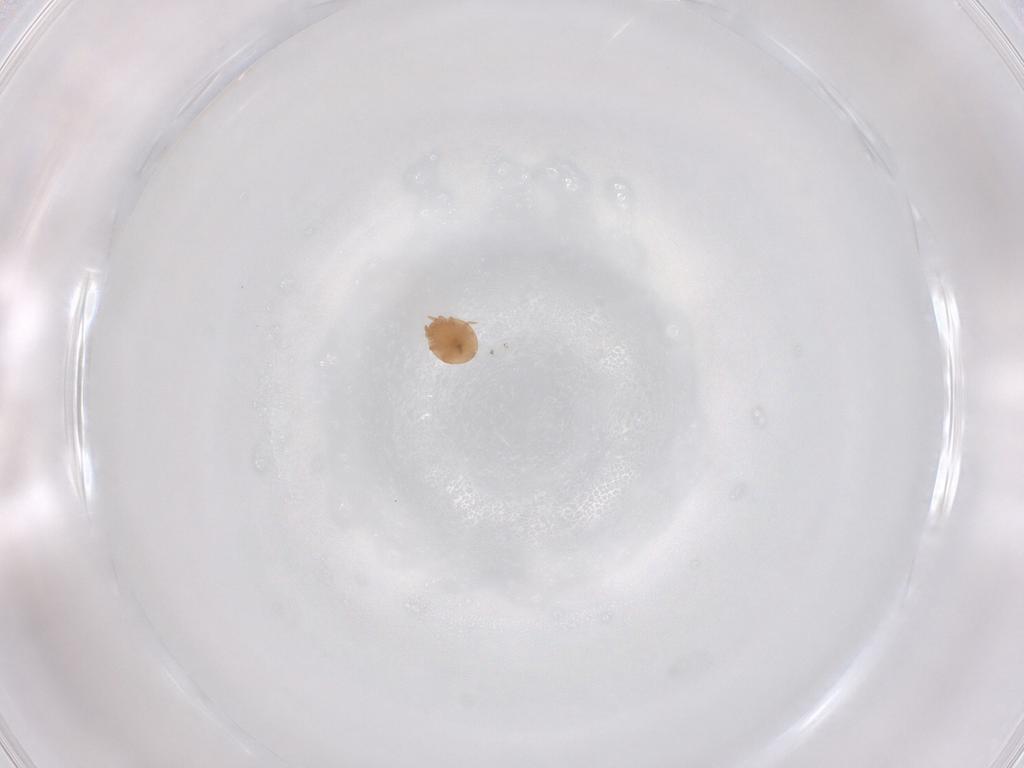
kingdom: Animalia
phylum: Arthropoda
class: Arachnida
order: Mesostigmata
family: Trematuridae
